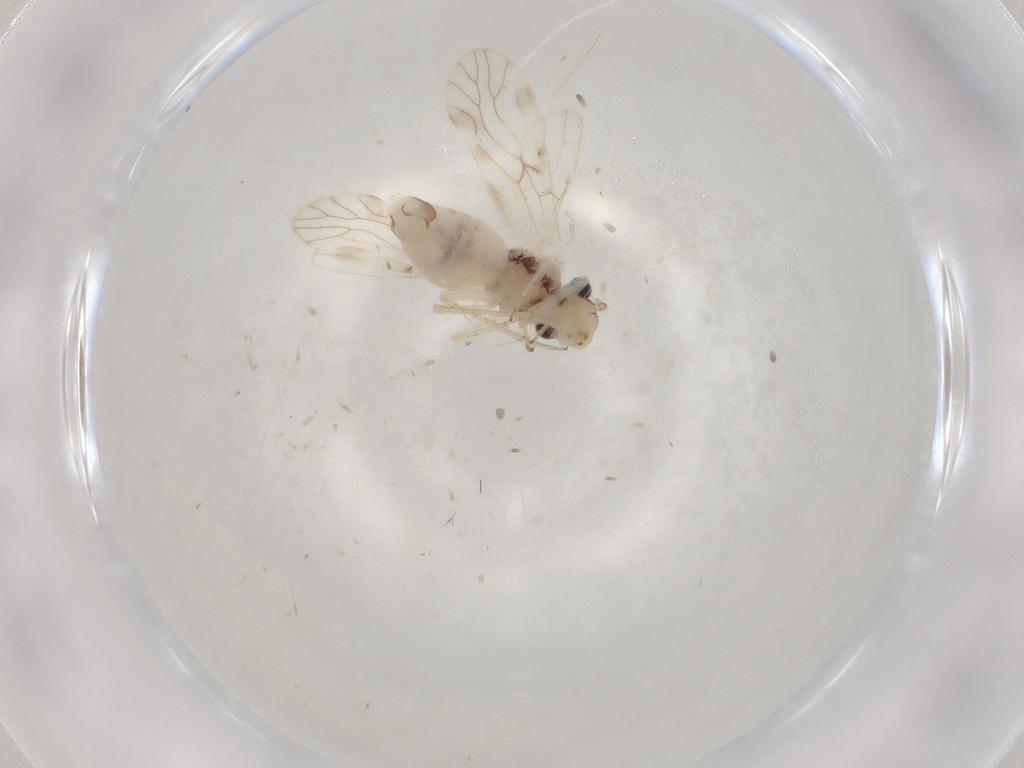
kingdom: Animalia
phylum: Arthropoda
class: Insecta
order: Psocodea
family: Caeciliusidae
